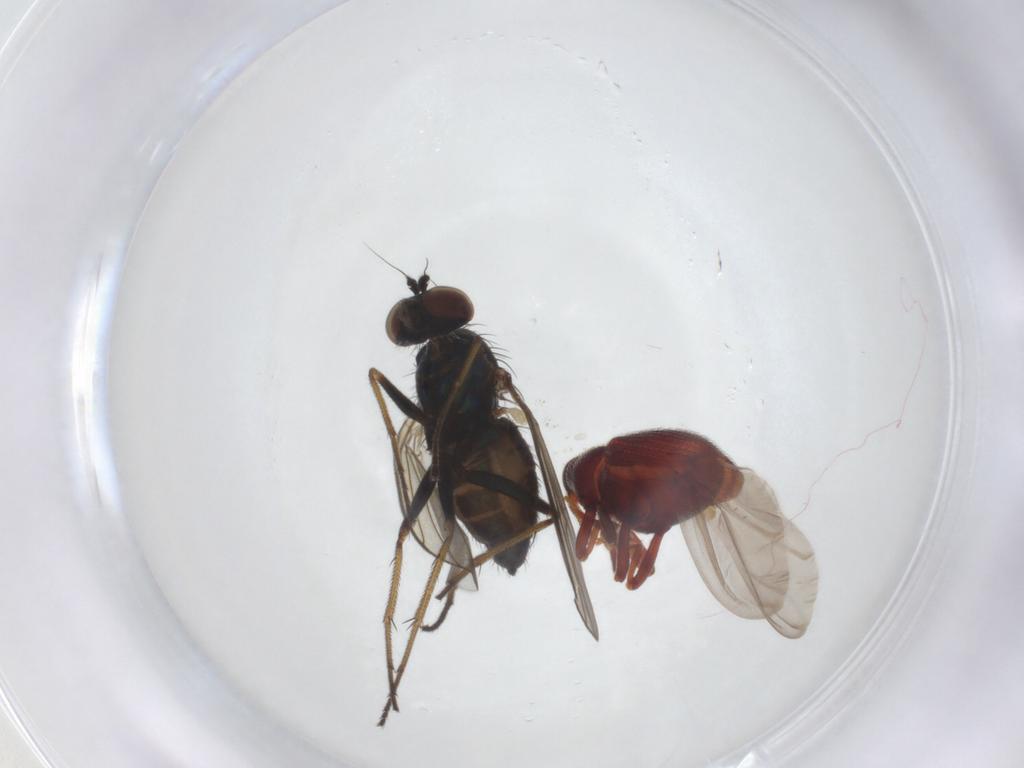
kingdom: Animalia
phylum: Arthropoda
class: Insecta
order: Diptera
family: Dolichopodidae
